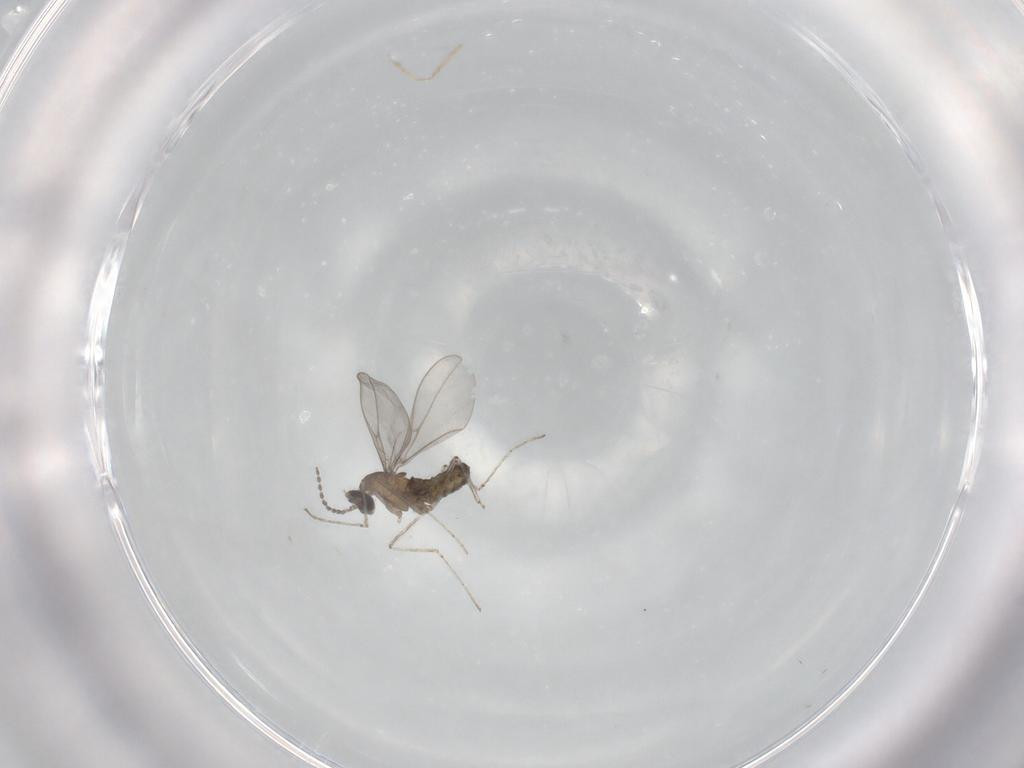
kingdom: Animalia
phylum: Arthropoda
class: Insecta
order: Diptera
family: Cecidomyiidae
